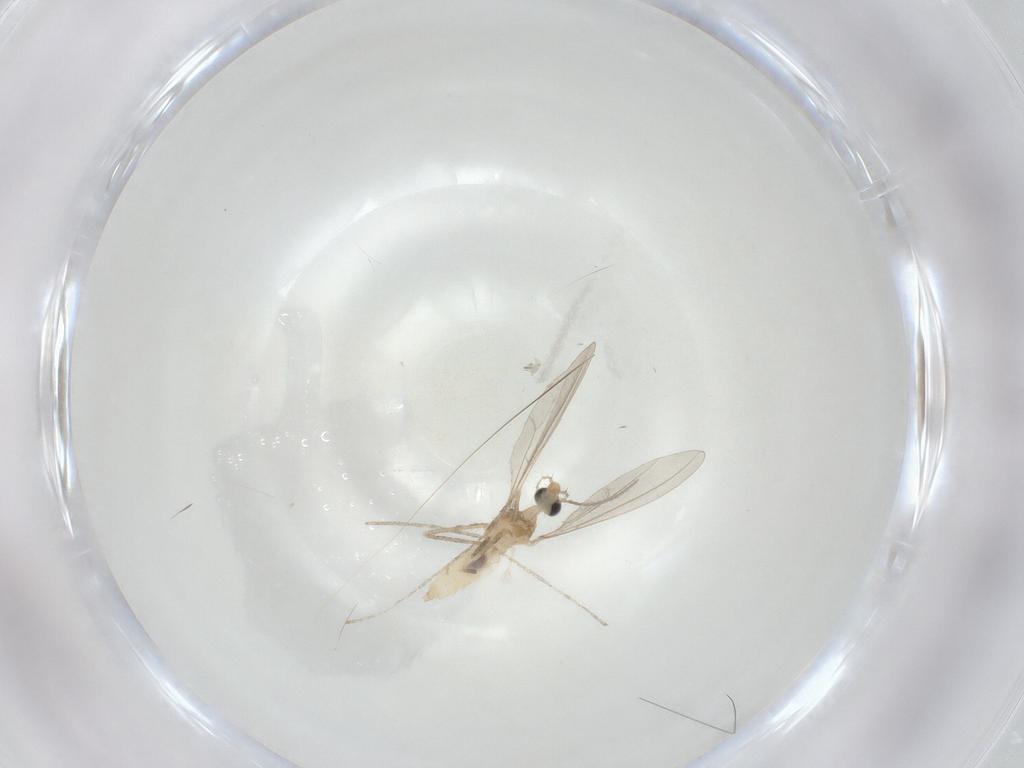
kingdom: Animalia
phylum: Arthropoda
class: Insecta
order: Diptera
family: Cecidomyiidae
